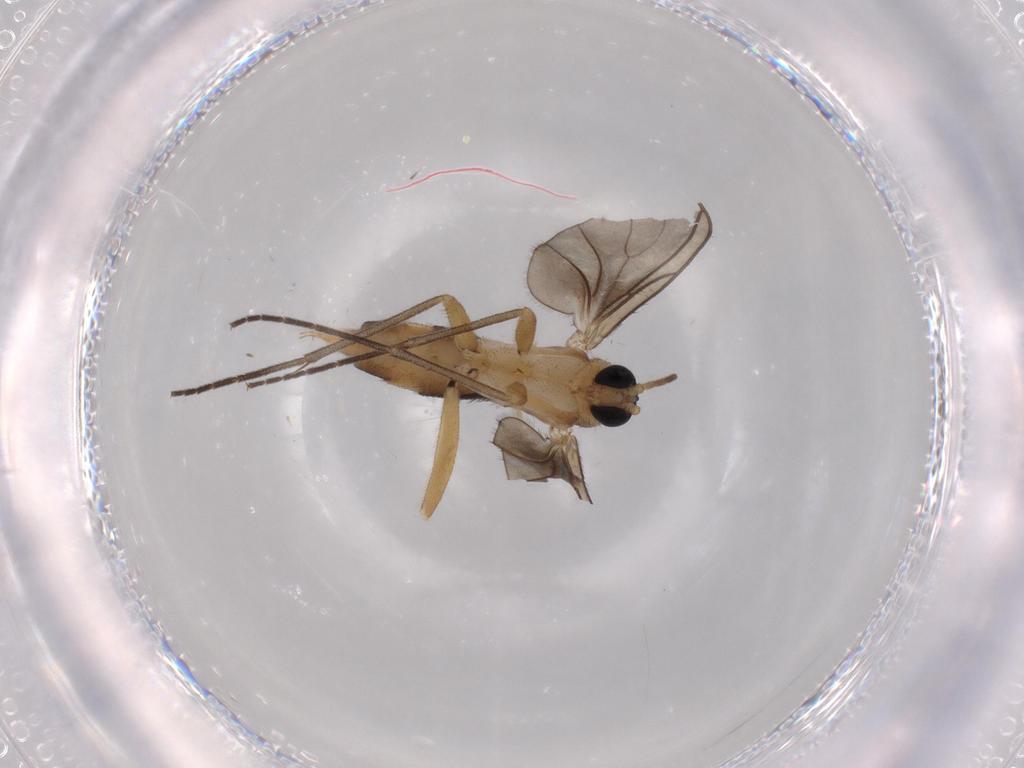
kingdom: Animalia
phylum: Arthropoda
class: Insecta
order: Diptera
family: Sciaridae
